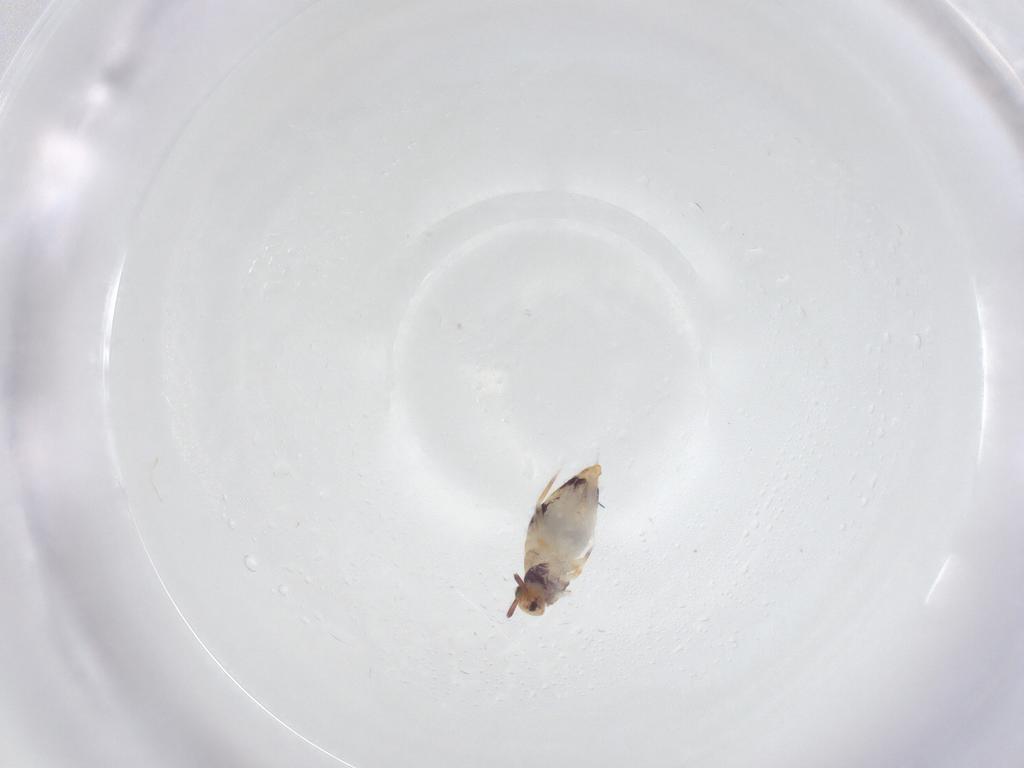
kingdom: Animalia
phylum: Arthropoda
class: Collembola
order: Entomobryomorpha
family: Entomobryidae
